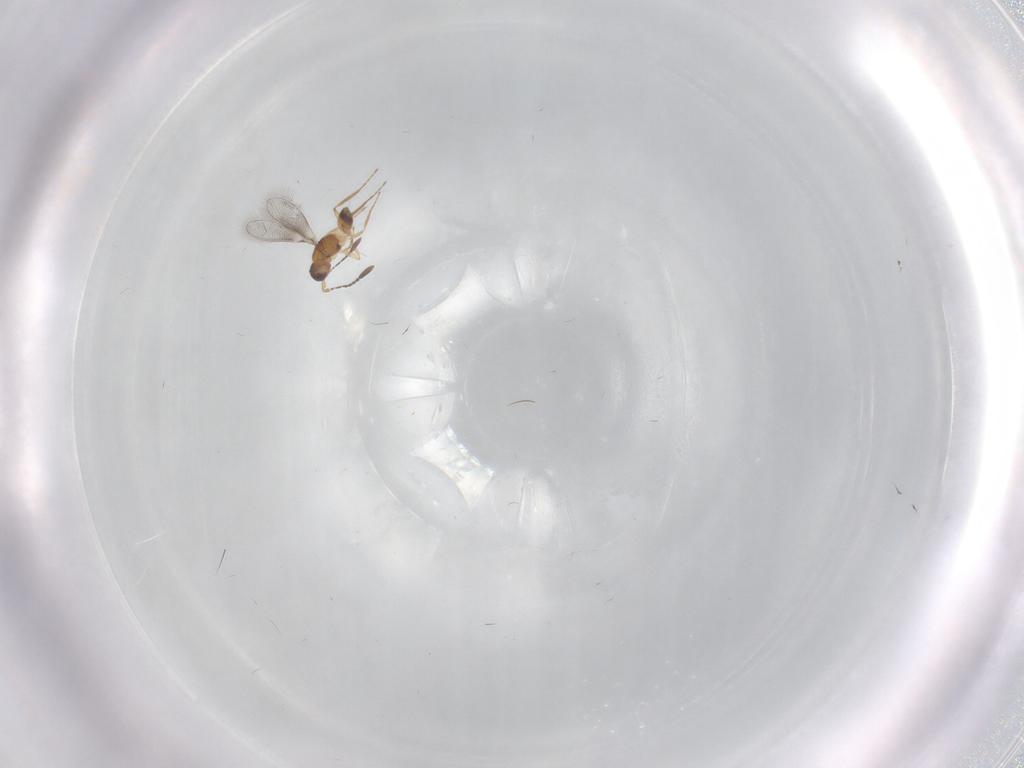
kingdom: Animalia
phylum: Arthropoda
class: Insecta
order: Hymenoptera
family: Mymaridae
